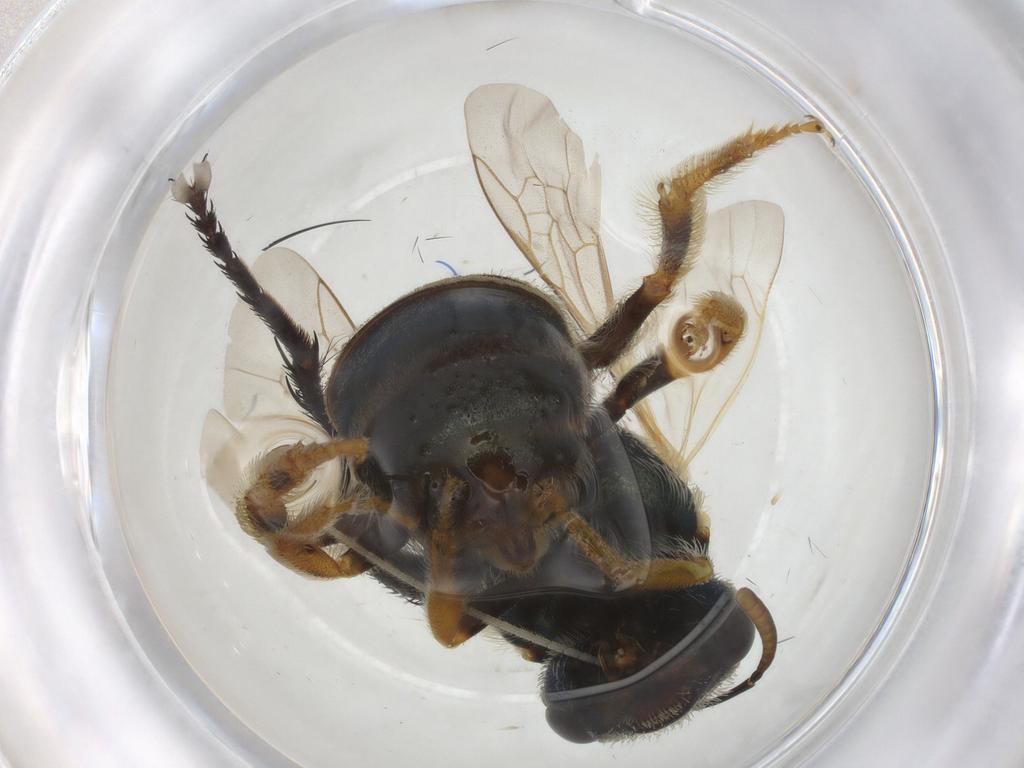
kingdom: Animalia
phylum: Arthropoda
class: Insecta
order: Hymenoptera
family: Halictidae
